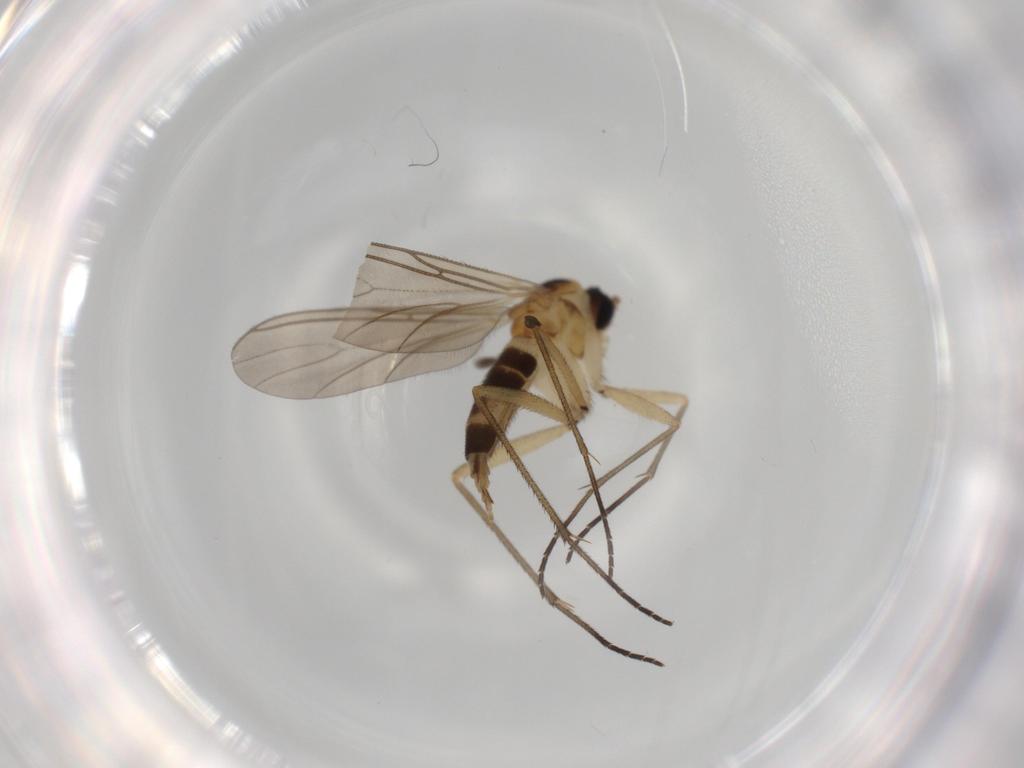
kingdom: Animalia
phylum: Arthropoda
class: Insecta
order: Diptera
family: Sciaridae
